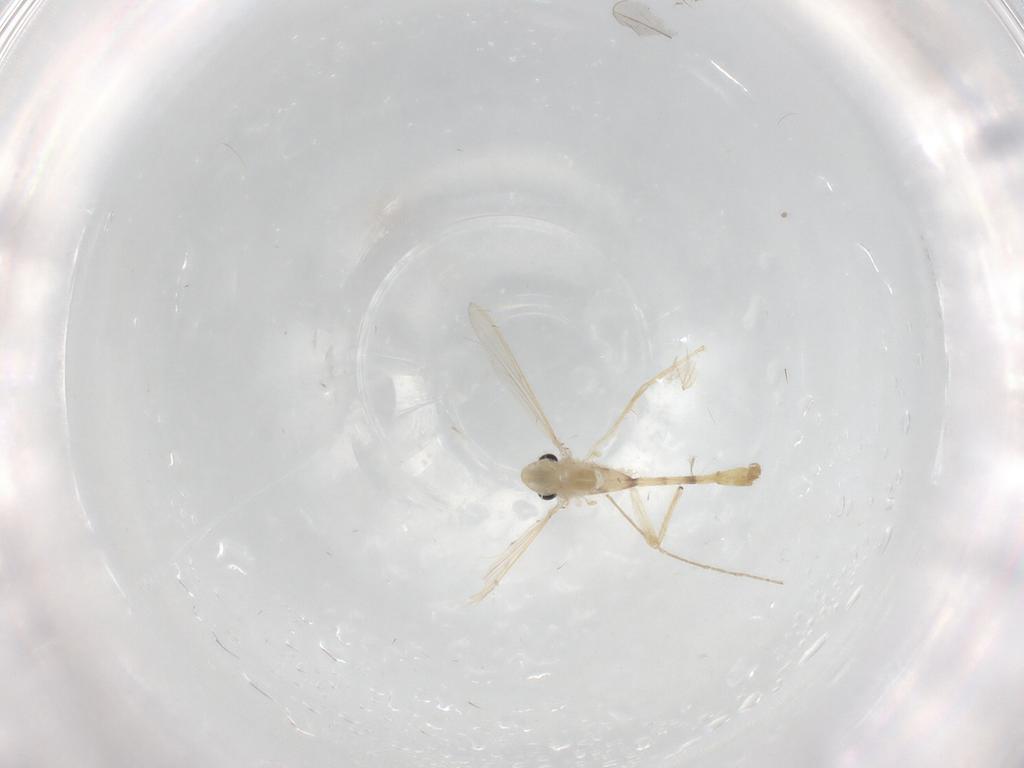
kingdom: Animalia
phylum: Arthropoda
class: Insecta
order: Diptera
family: Chironomidae
